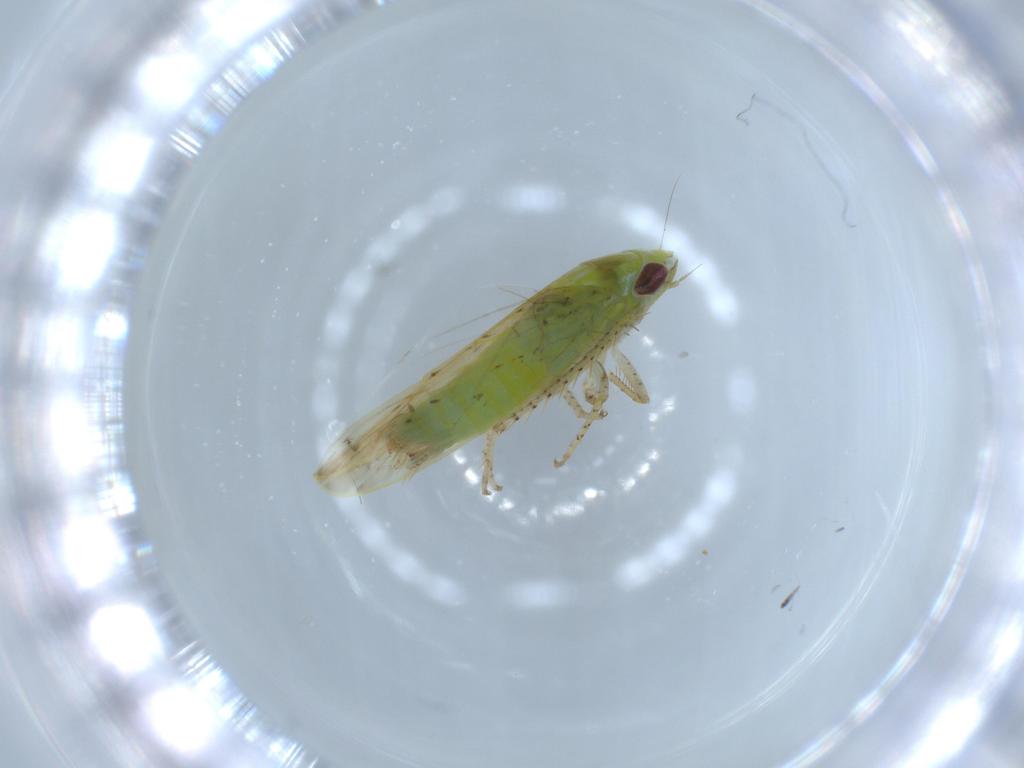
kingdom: Animalia
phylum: Arthropoda
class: Insecta
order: Hemiptera
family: Cicadellidae
